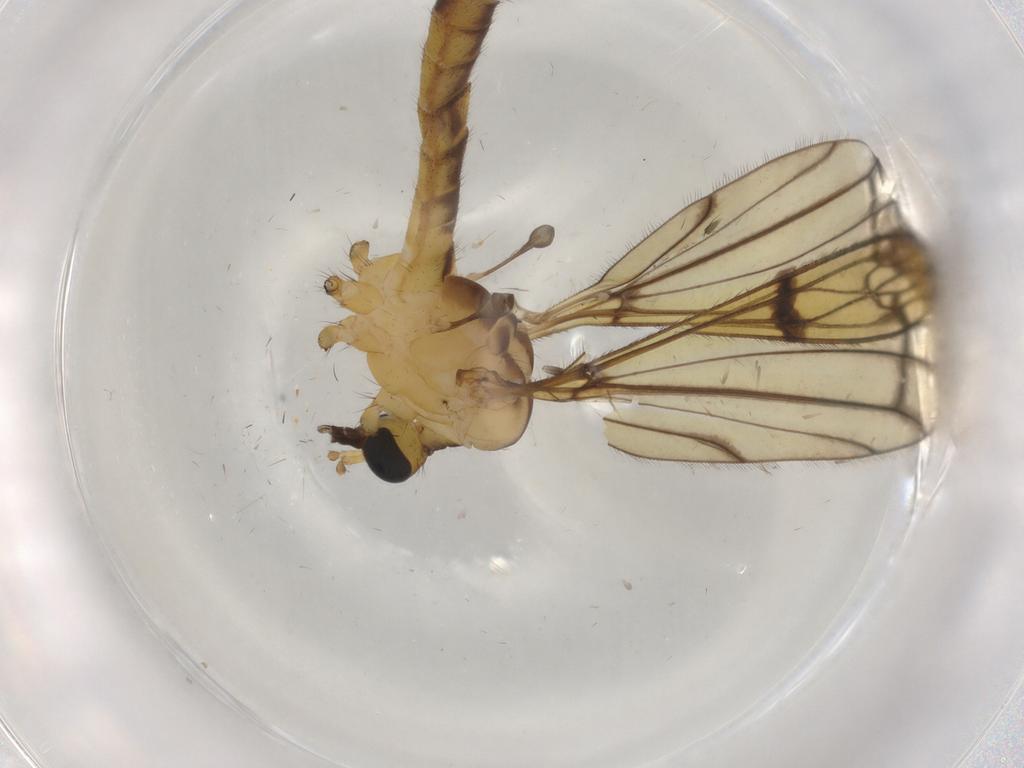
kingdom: Animalia
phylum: Arthropoda
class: Insecta
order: Diptera
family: Limoniidae
